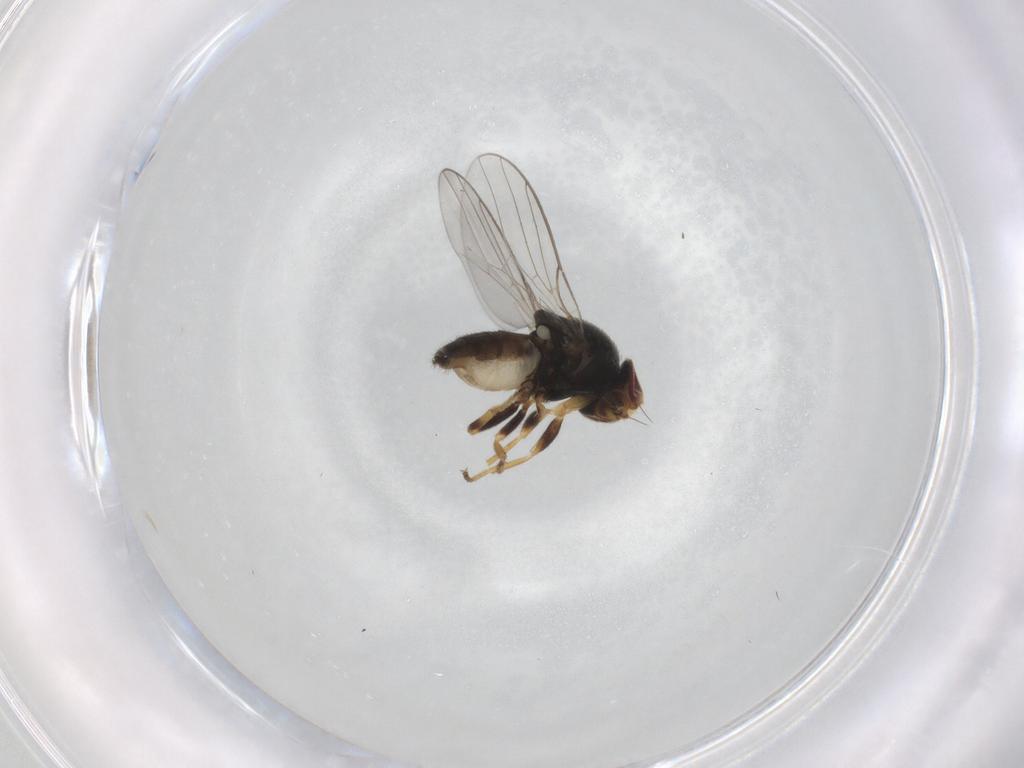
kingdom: Animalia
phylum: Arthropoda
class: Insecta
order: Diptera
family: Chloropidae
